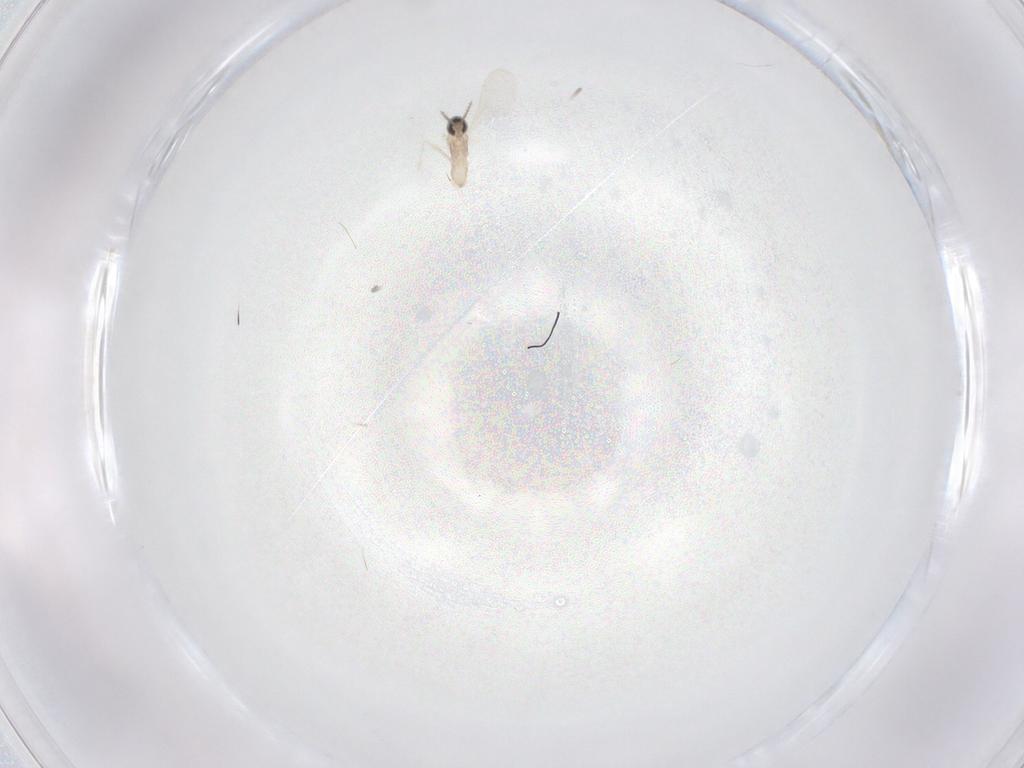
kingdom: Animalia
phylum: Arthropoda
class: Insecta
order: Diptera
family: Cecidomyiidae
